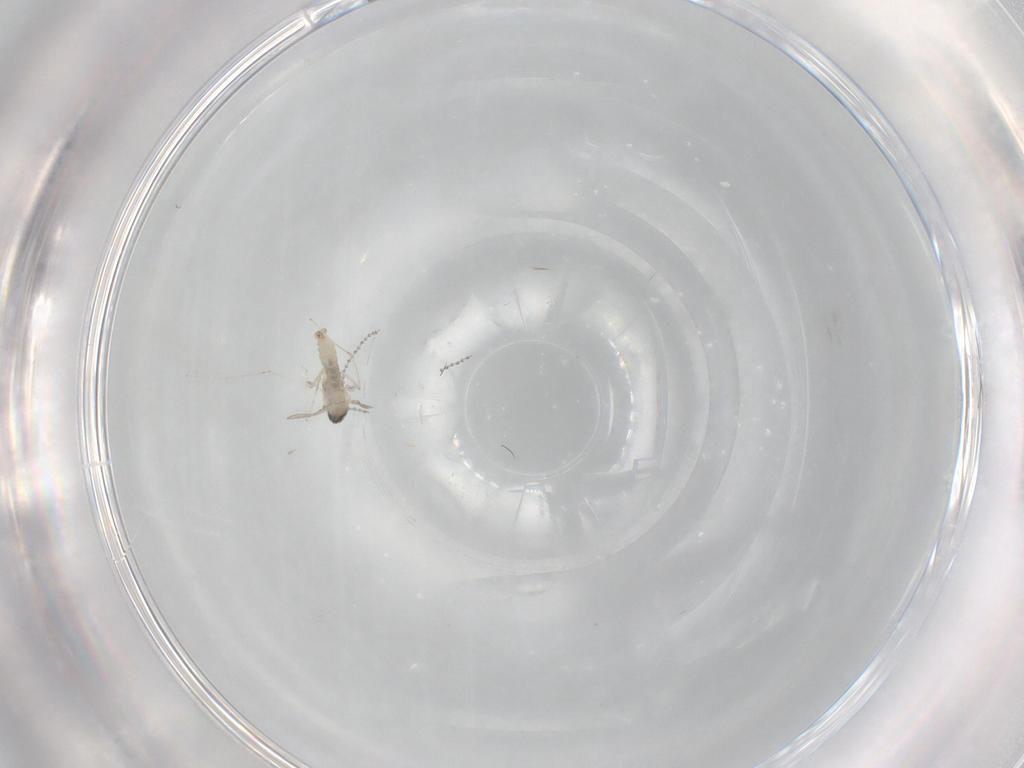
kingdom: Animalia
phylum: Arthropoda
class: Insecta
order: Diptera
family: Cecidomyiidae
